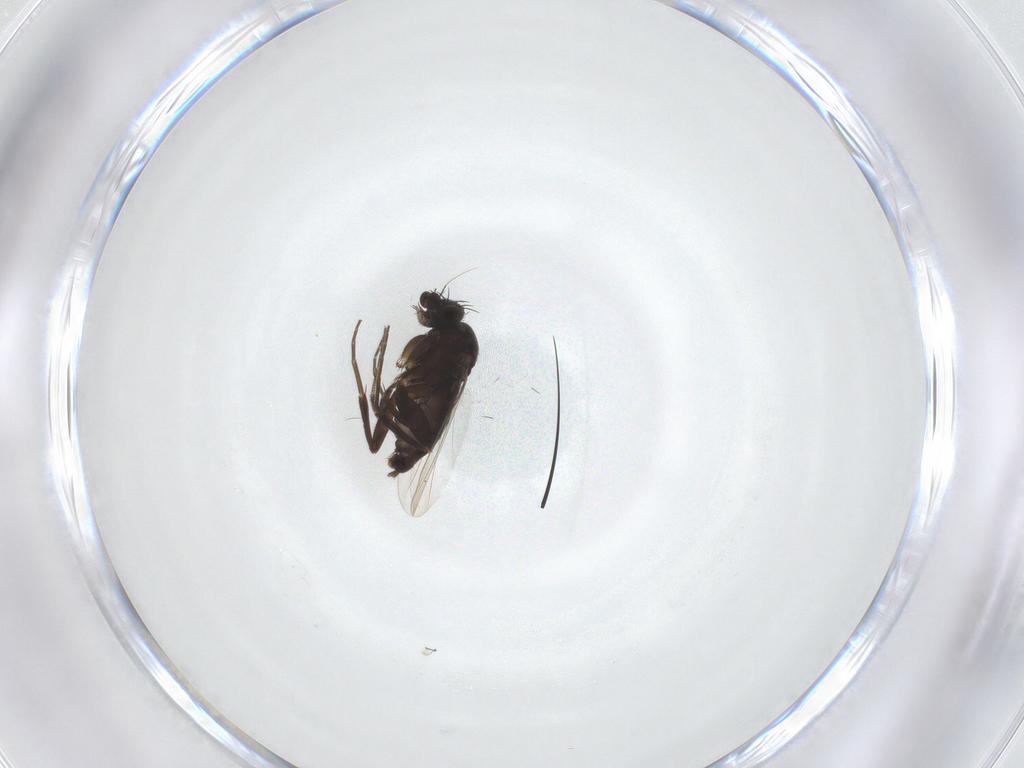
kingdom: Animalia
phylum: Arthropoda
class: Insecta
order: Diptera
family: Phoridae
